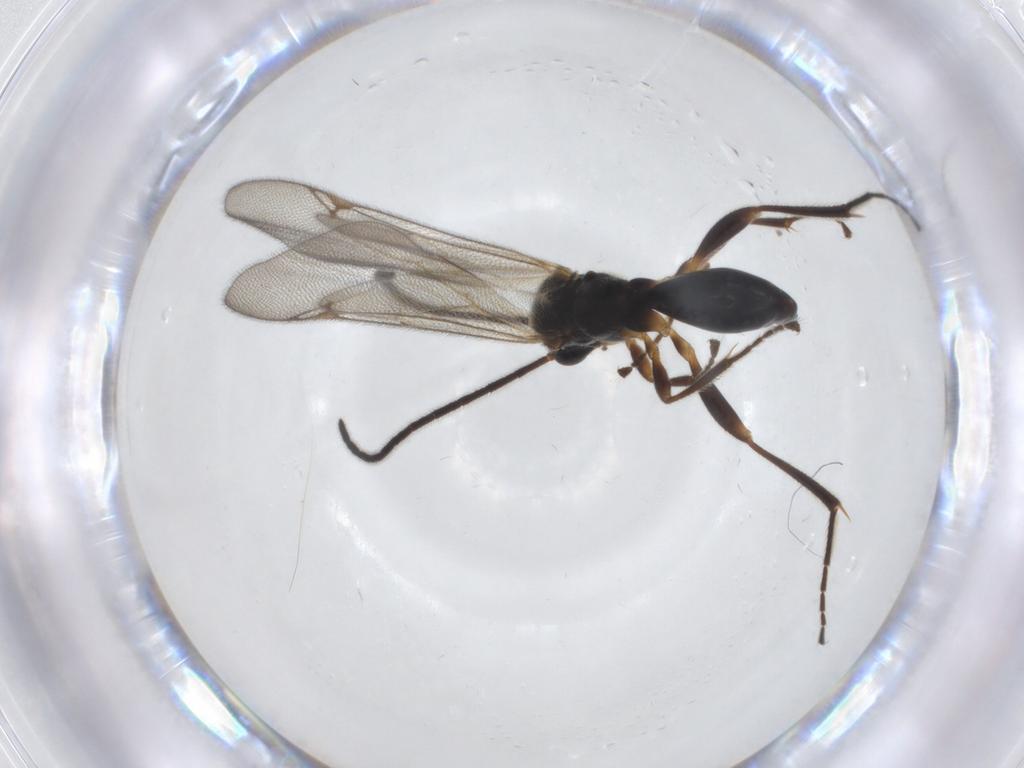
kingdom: Animalia
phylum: Arthropoda
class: Insecta
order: Hymenoptera
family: Proctotrupidae
